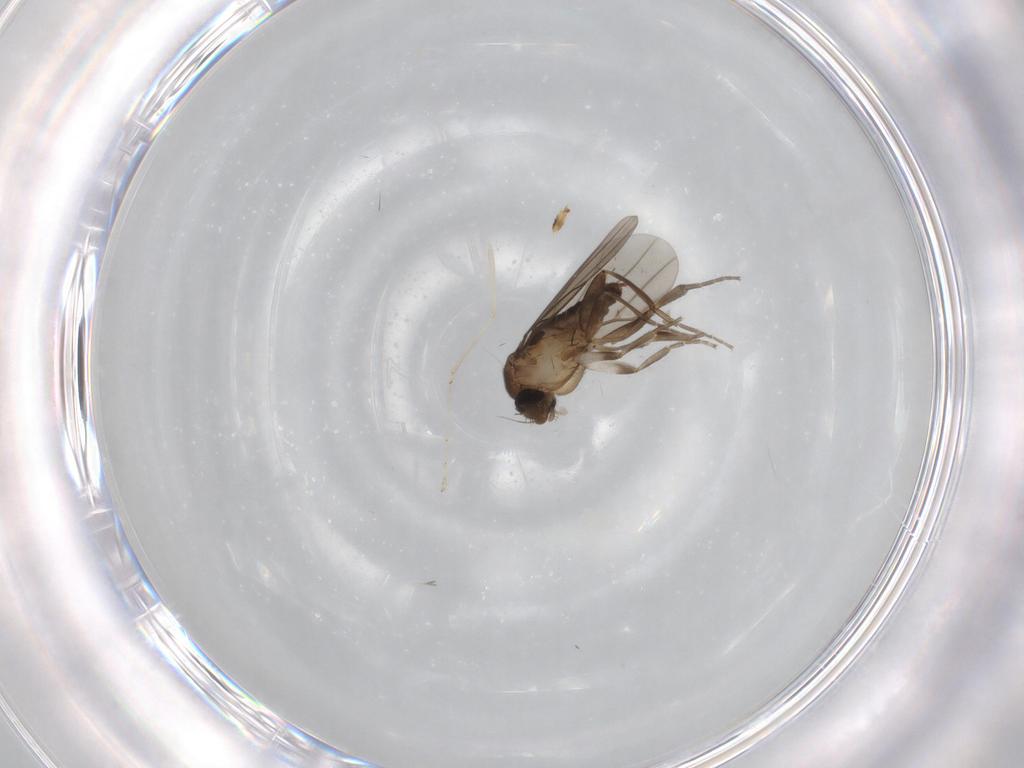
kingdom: Animalia
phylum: Arthropoda
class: Insecta
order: Diptera
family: Cecidomyiidae
